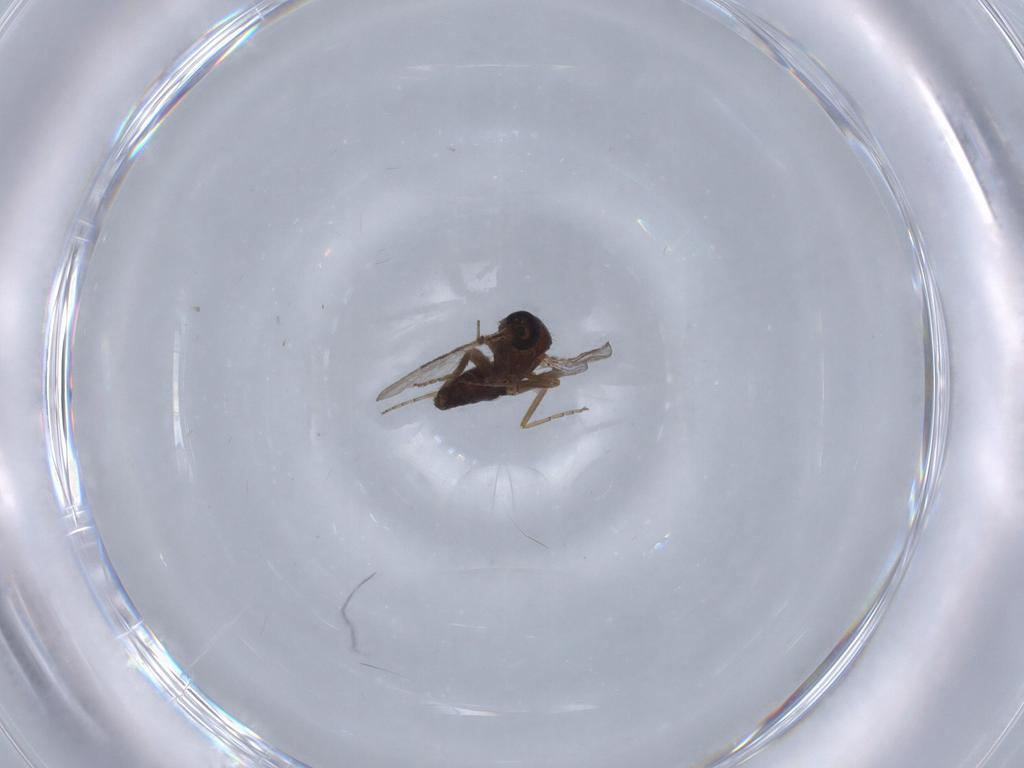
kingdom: Animalia
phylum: Arthropoda
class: Insecta
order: Diptera
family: Ceratopogonidae
